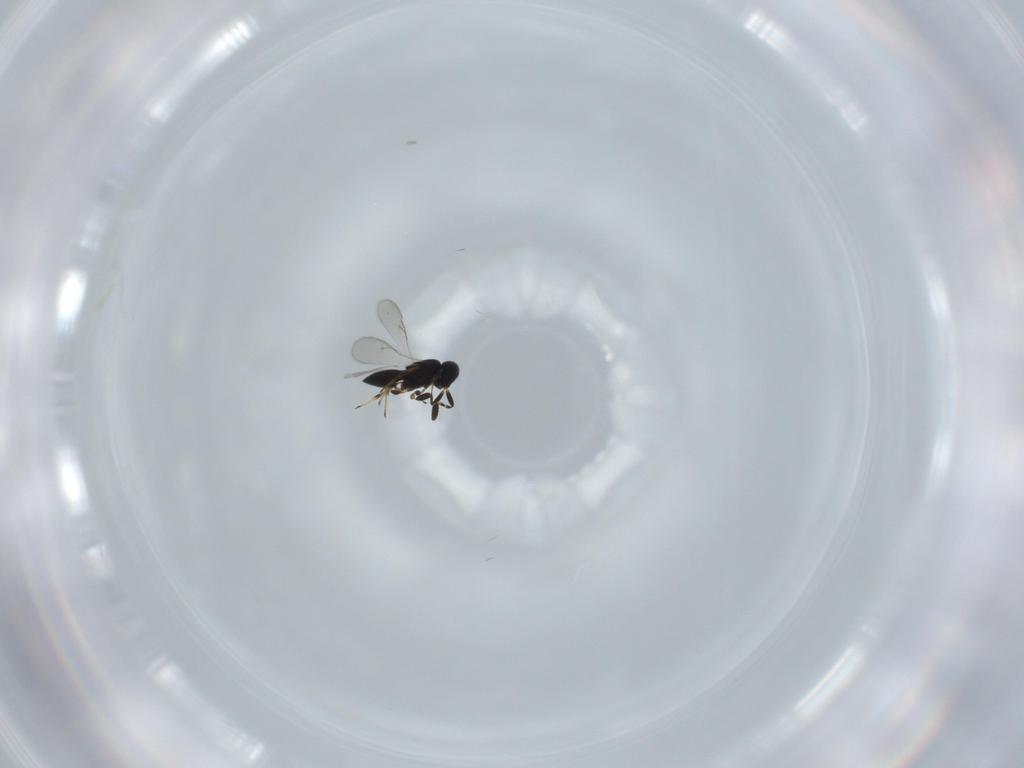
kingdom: Animalia
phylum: Arthropoda
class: Insecta
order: Hymenoptera
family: Scelionidae
